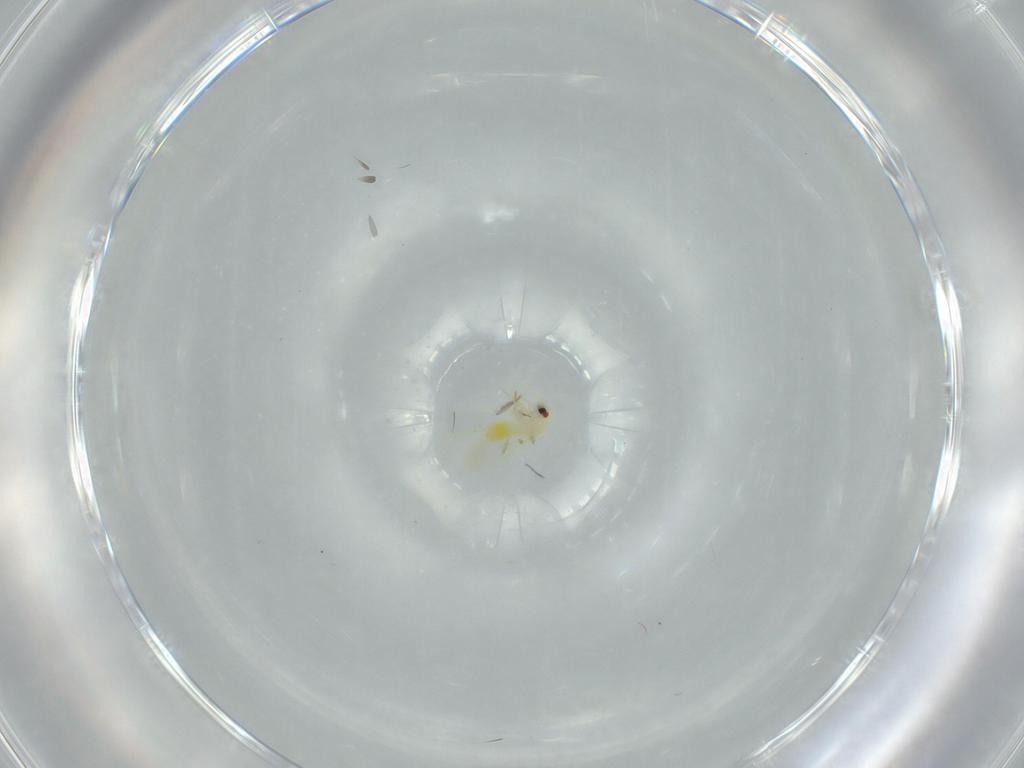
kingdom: Animalia
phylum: Arthropoda
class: Insecta
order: Hemiptera
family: Aleyrodidae
